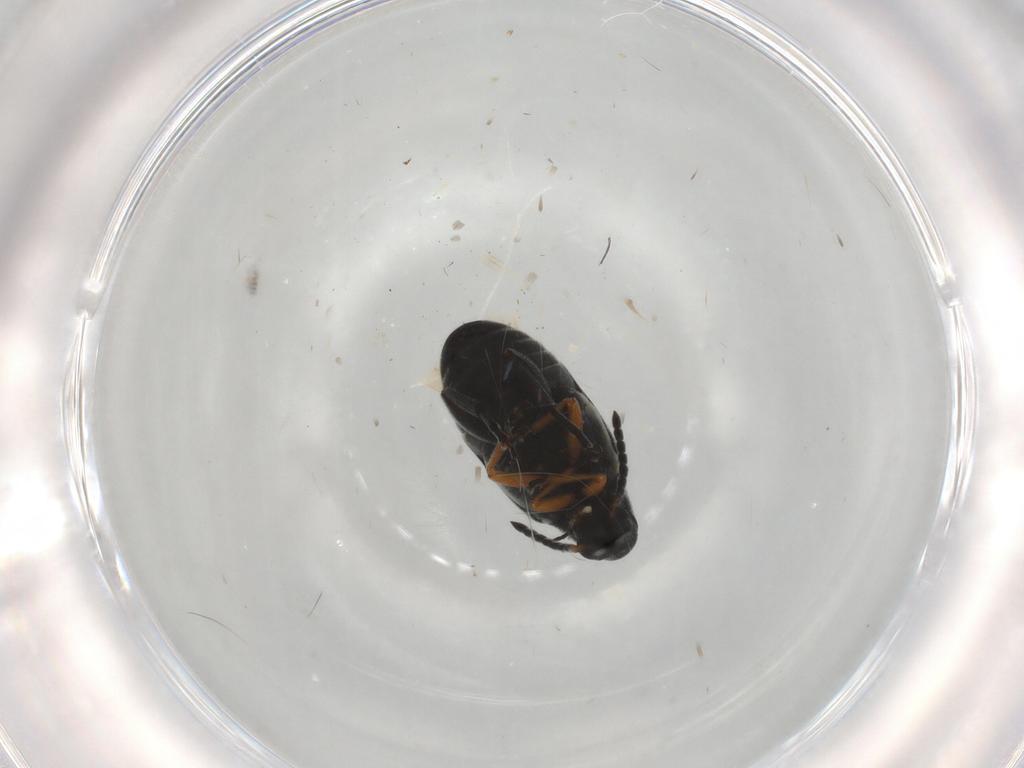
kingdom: Animalia
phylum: Arthropoda
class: Insecta
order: Coleoptera
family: Chrysomelidae
